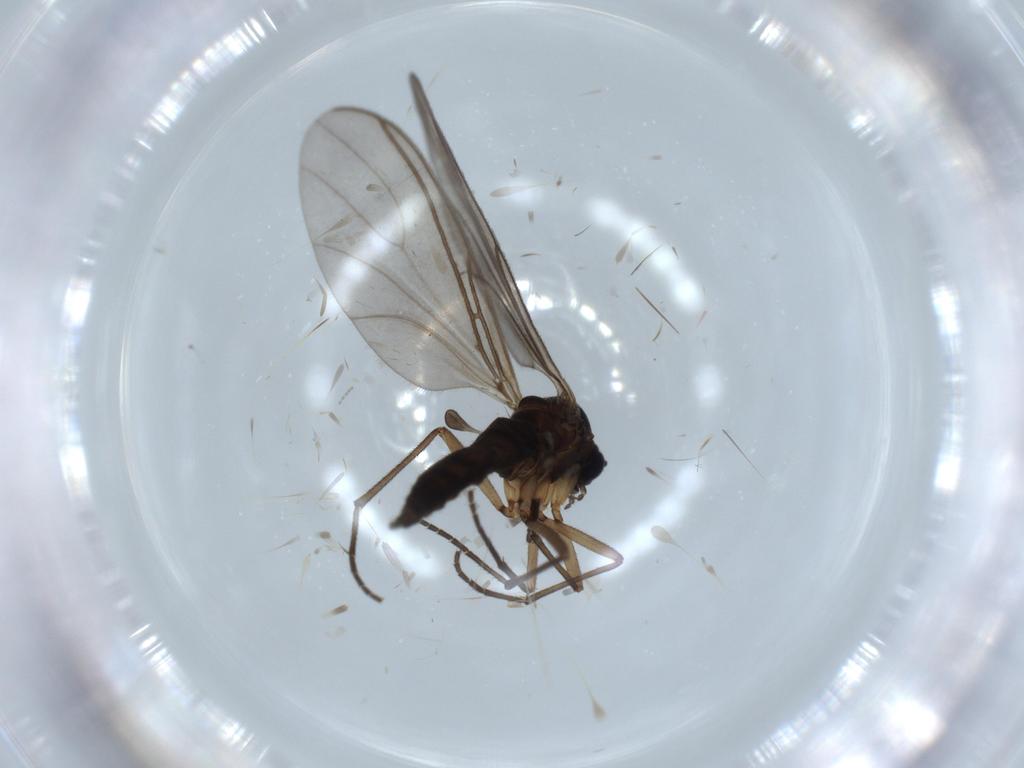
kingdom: Animalia
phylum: Arthropoda
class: Insecta
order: Diptera
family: Sciaridae
